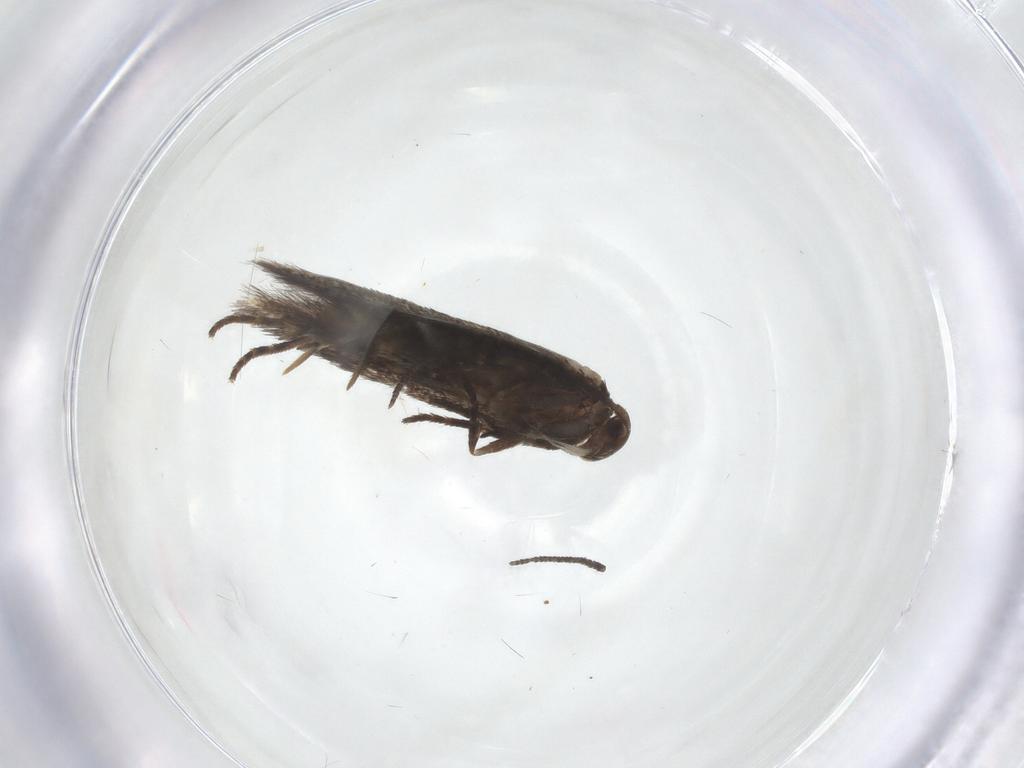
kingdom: Animalia
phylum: Arthropoda
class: Insecta
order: Lepidoptera
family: Elachistidae
